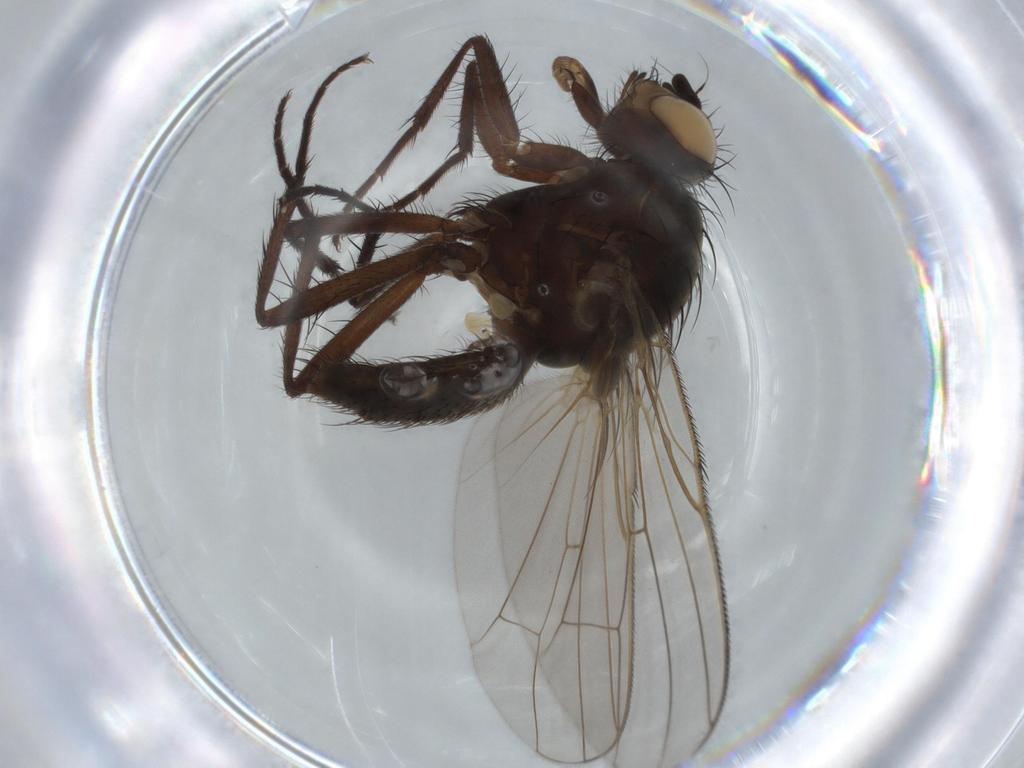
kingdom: Animalia
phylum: Arthropoda
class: Insecta
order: Diptera
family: Anthomyiidae
